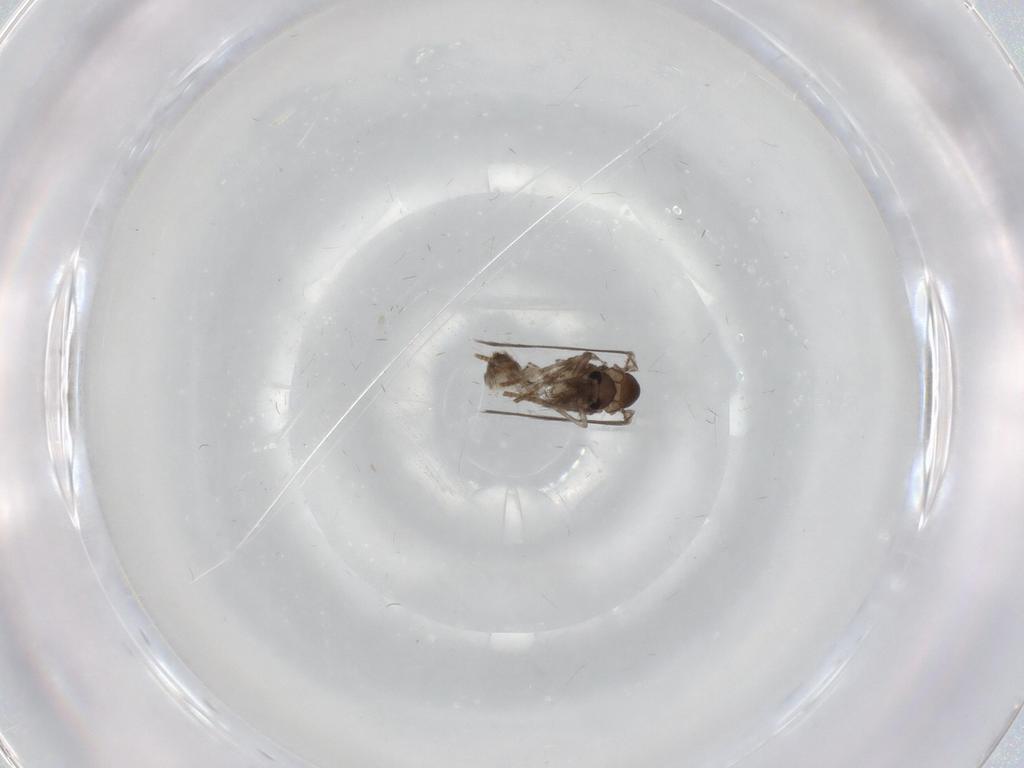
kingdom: Animalia
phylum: Arthropoda
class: Insecta
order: Diptera
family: Psychodidae
